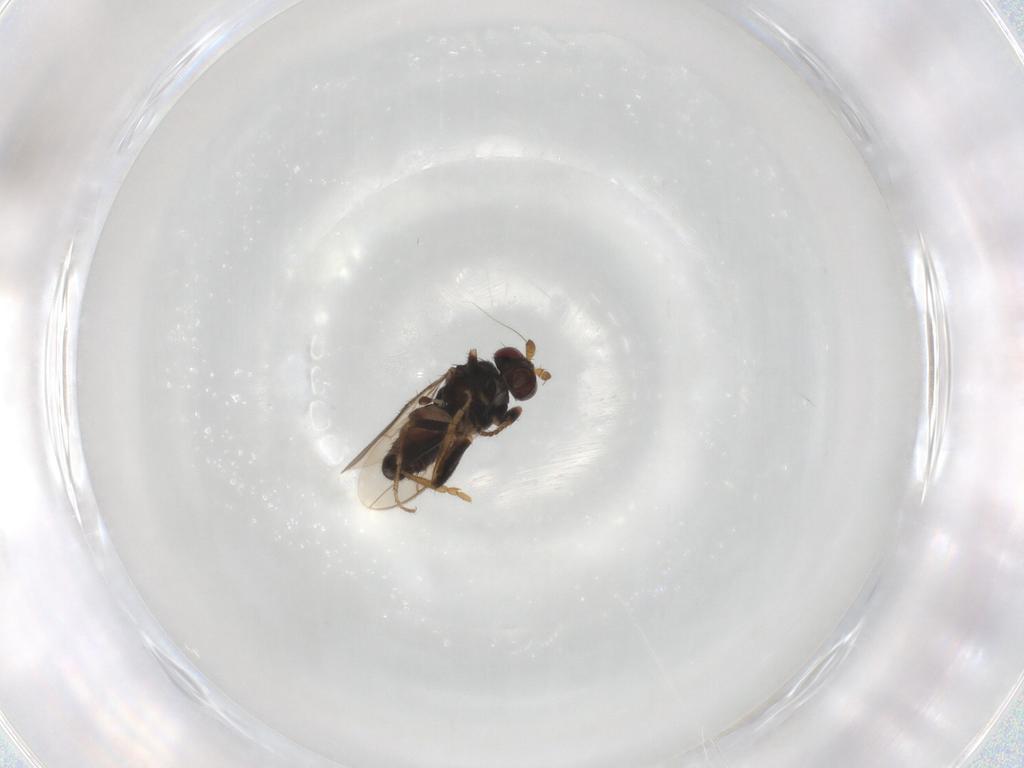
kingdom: Animalia
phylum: Arthropoda
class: Insecta
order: Diptera
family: Sphaeroceridae
